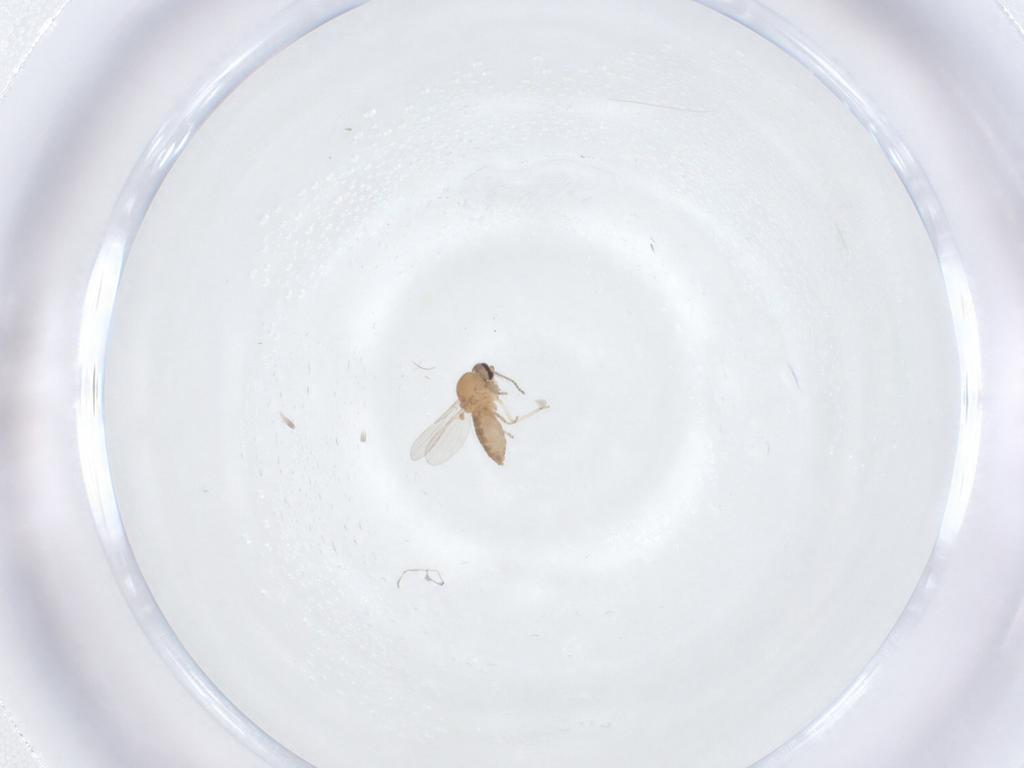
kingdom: Animalia
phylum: Arthropoda
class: Insecta
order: Diptera
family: Ceratopogonidae
